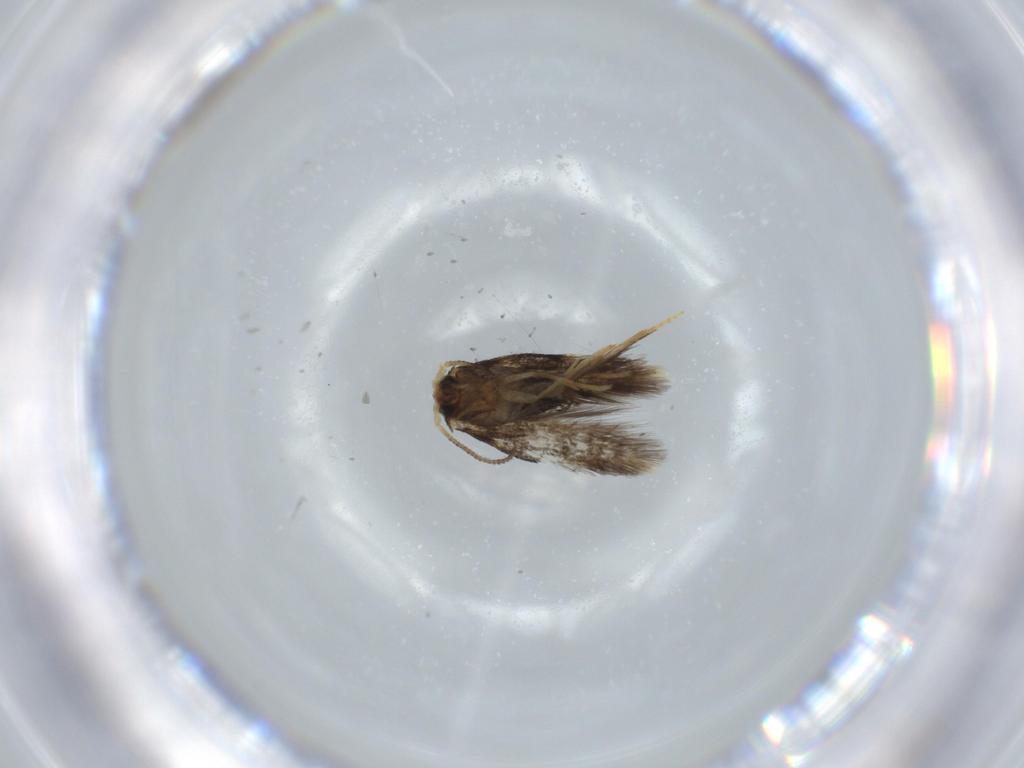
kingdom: Animalia
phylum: Arthropoda
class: Insecta
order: Lepidoptera
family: Nepticulidae
